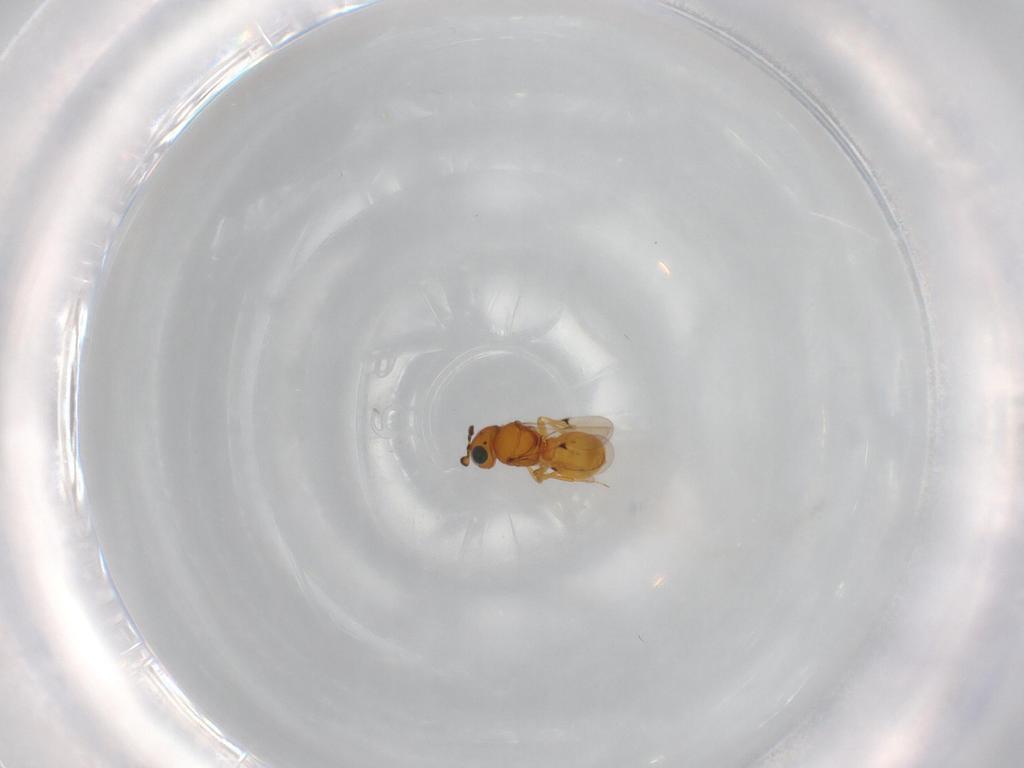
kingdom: Animalia
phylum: Arthropoda
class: Insecta
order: Hymenoptera
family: Scelionidae
